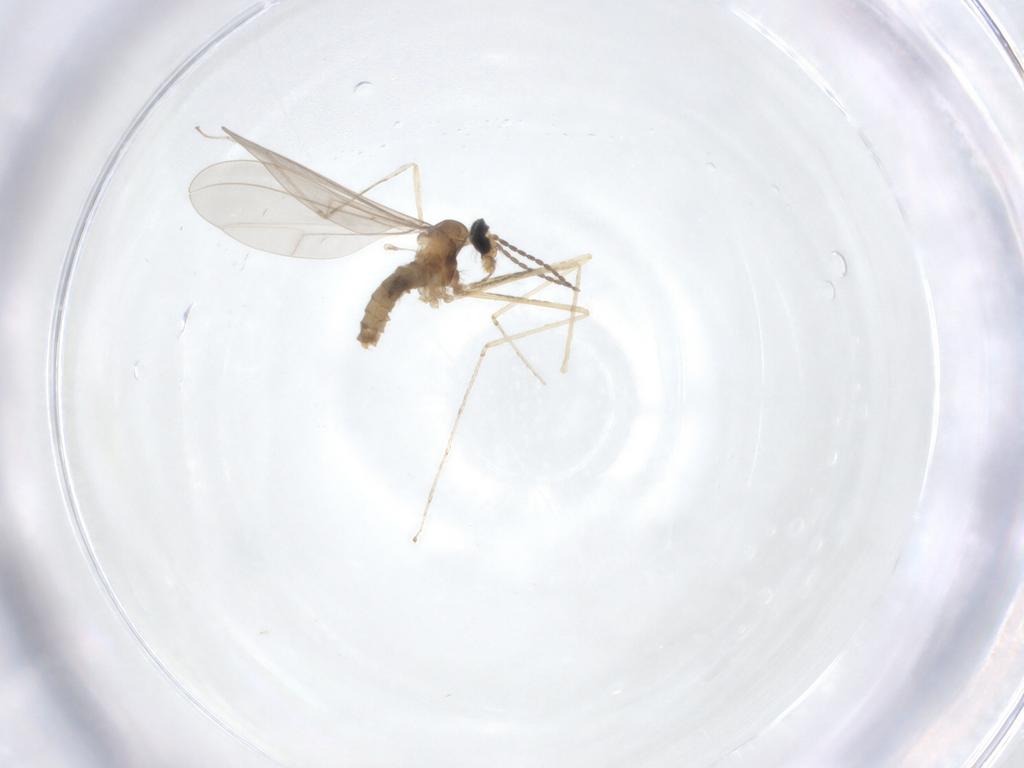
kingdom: Animalia
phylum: Arthropoda
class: Insecta
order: Diptera
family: Cecidomyiidae
